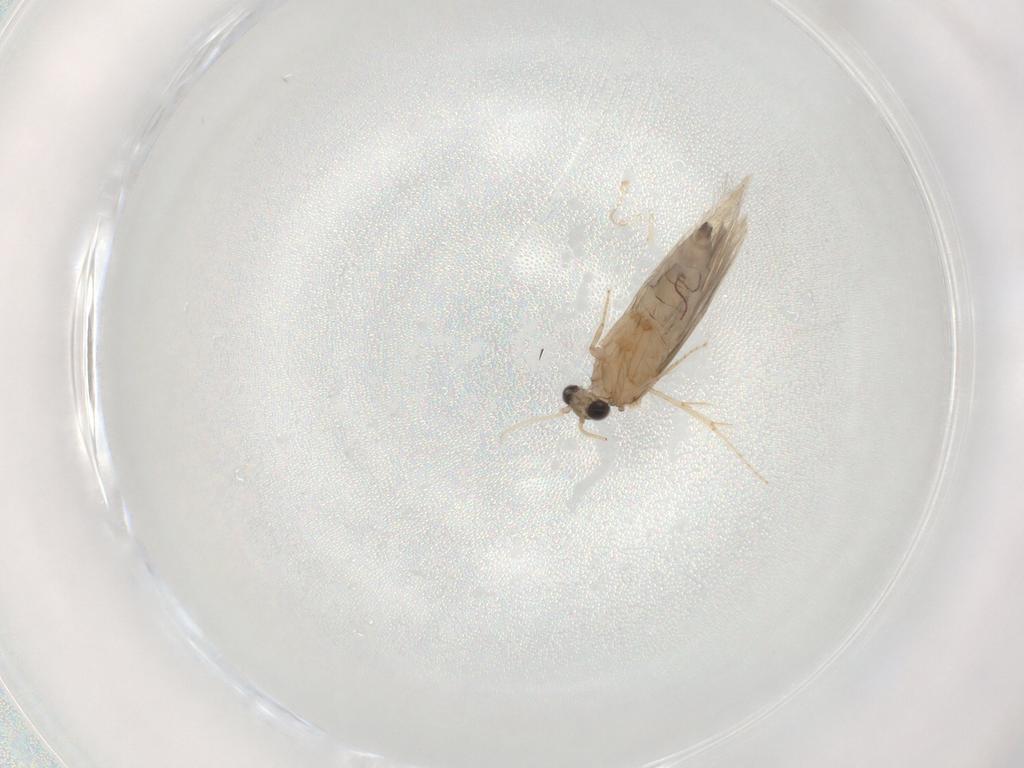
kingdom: Animalia
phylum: Arthropoda
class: Insecta
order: Trichoptera
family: Hydroptilidae
